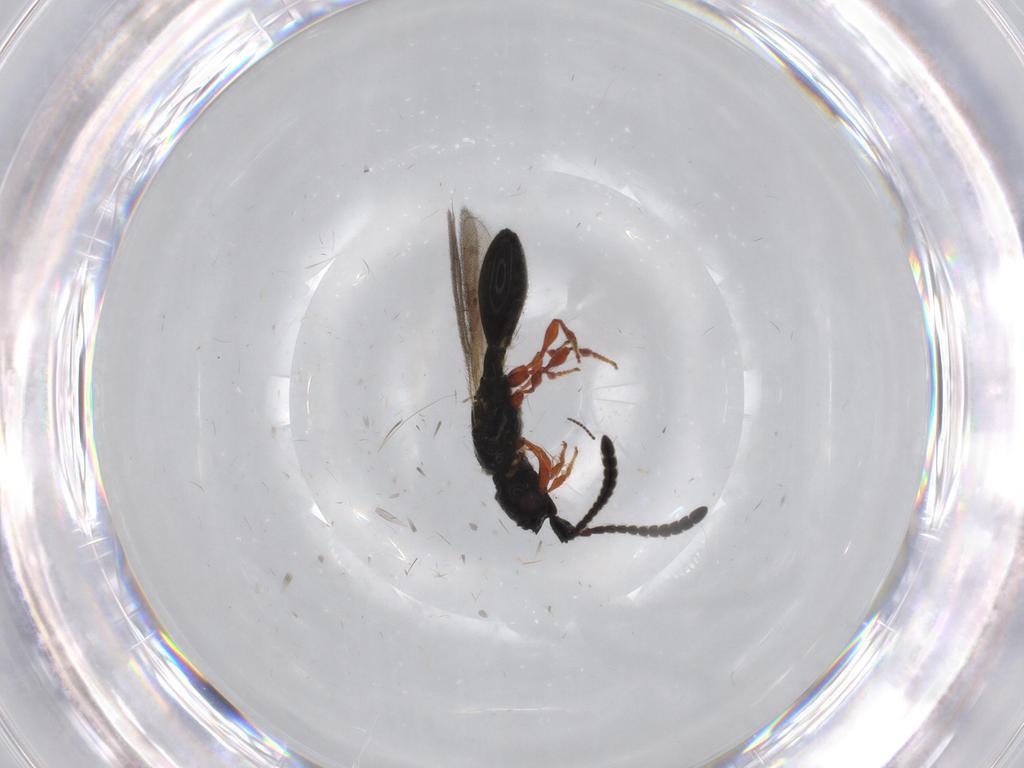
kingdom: Animalia
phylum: Arthropoda
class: Insecta
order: Hymenoptera
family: Diapriidae
